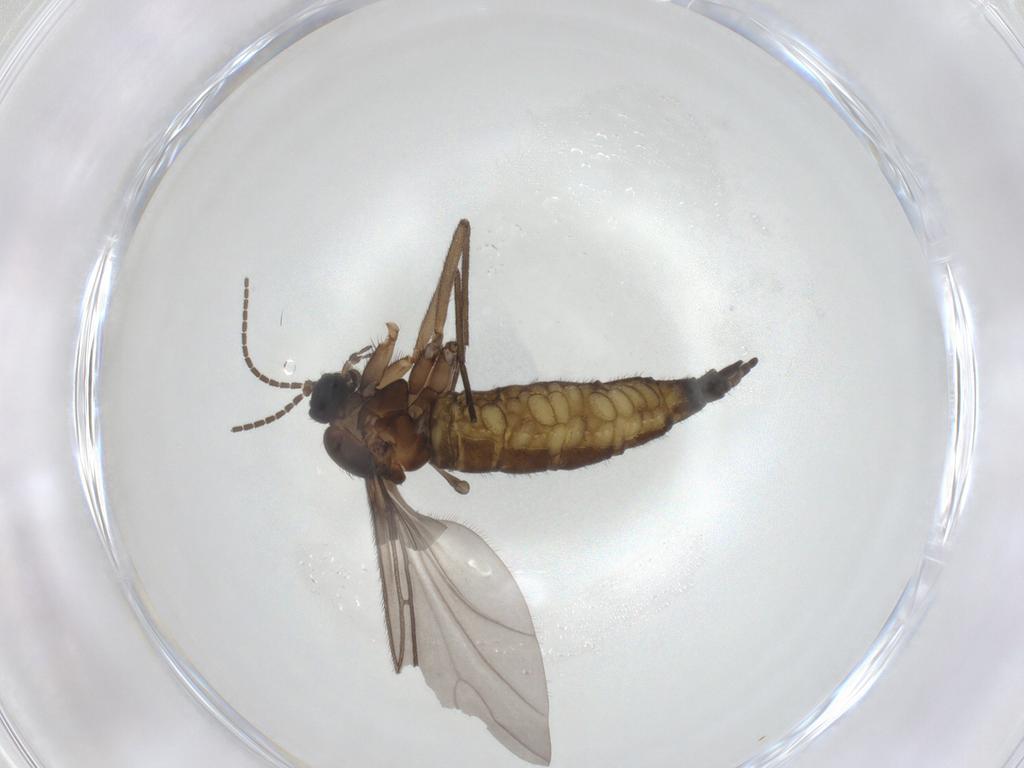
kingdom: Animalia
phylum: Arthropoda
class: Insecta
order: Diptera
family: Sciaridae
